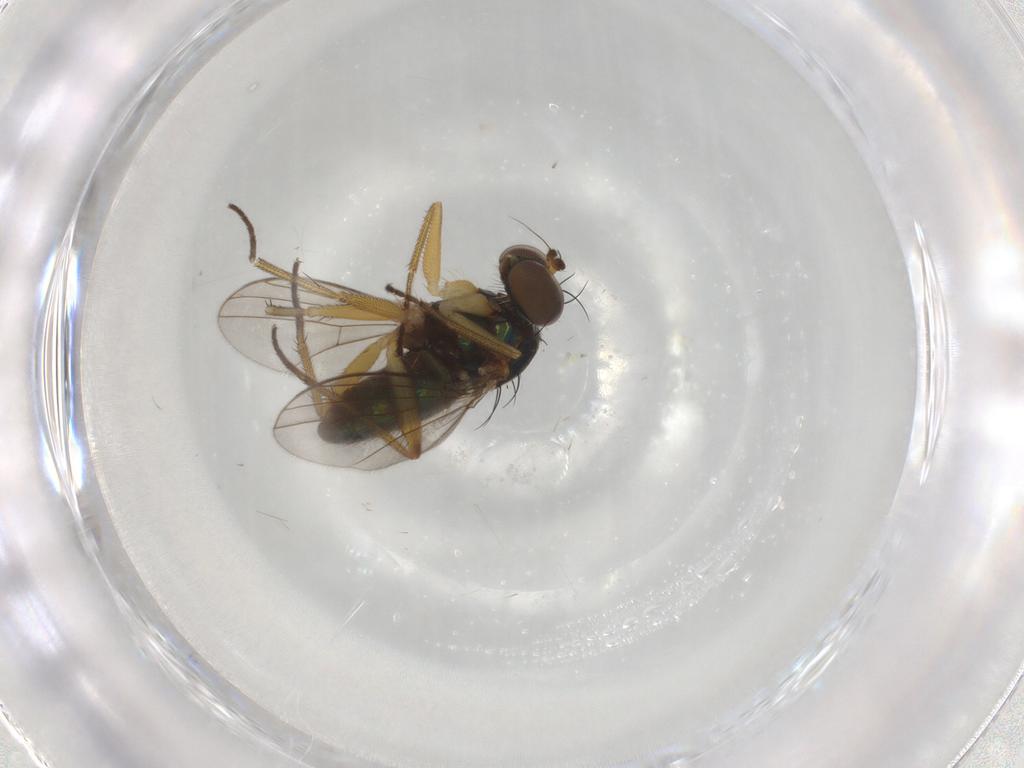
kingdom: Animalia
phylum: Arthropoda
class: Insecta
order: Diptera
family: Dolichopodidae
